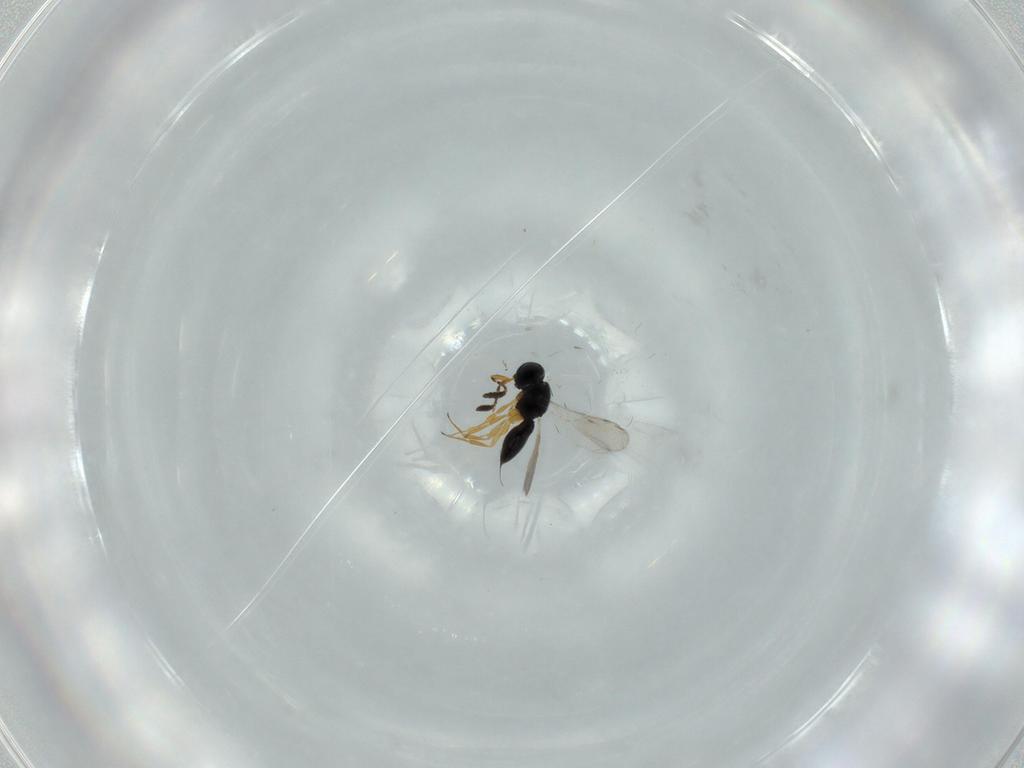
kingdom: Animalia
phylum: Arthropoda
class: Insecta
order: Hymenoptera
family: Scelionidae
